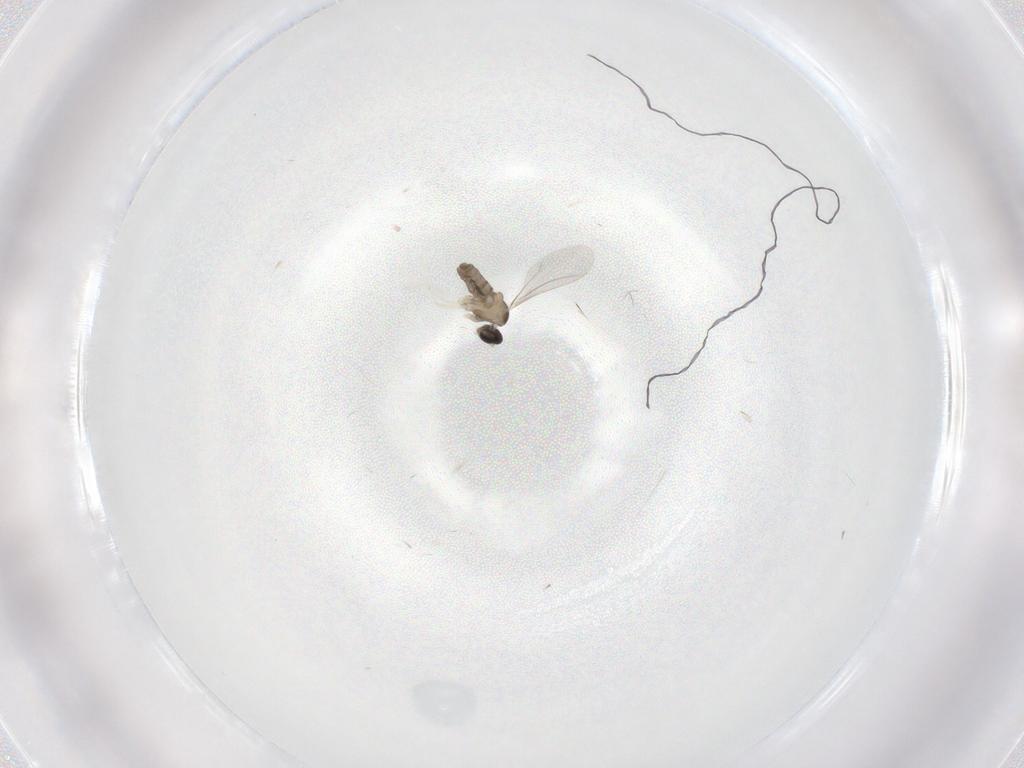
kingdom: Animalia
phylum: Arthropoda
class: Insecta
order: Diptera
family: Cecidomyiidae
